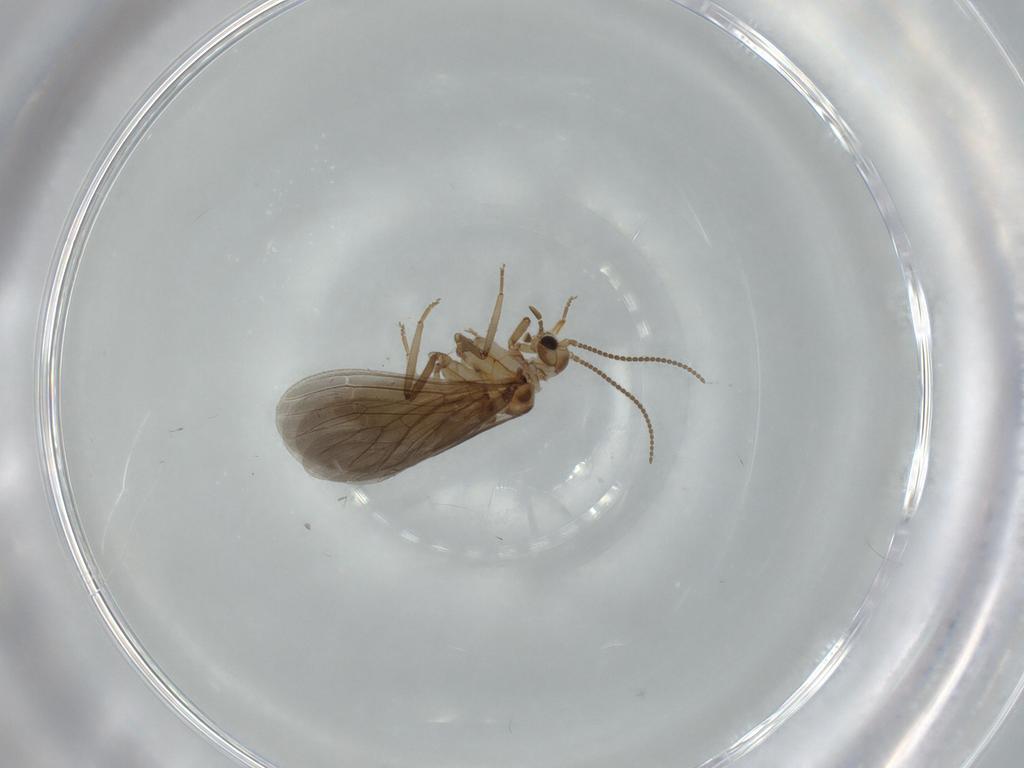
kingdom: Animalia
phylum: Arthropoda
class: Insecta
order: Neuroptera
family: Coniopterygidae
